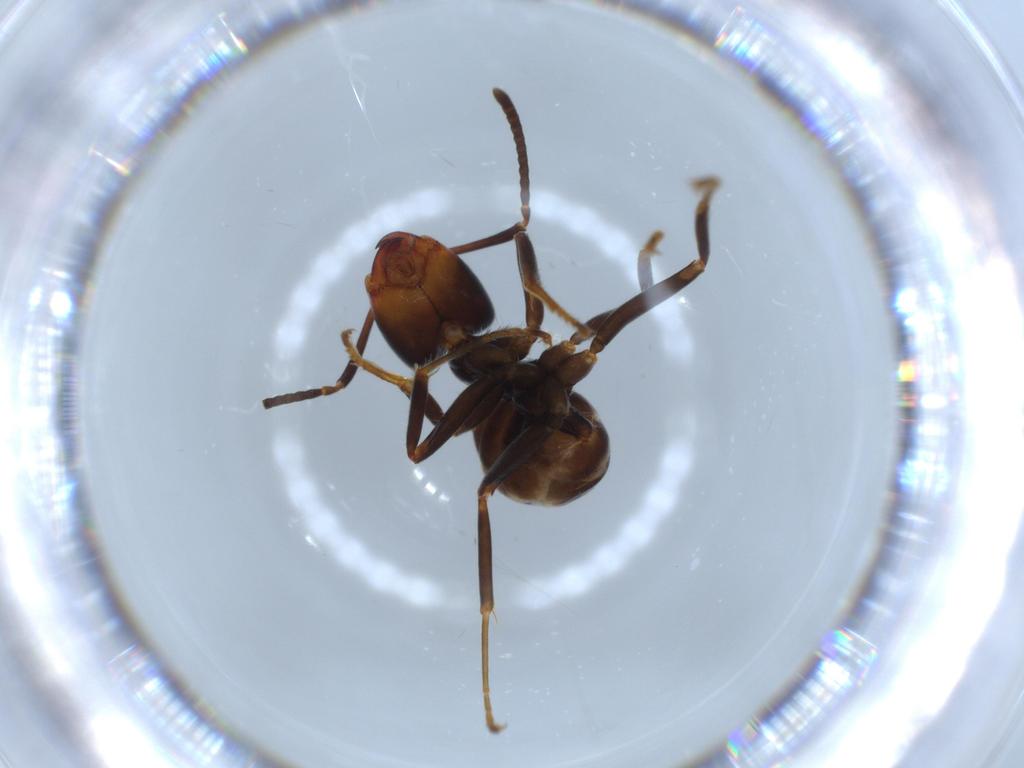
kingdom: Animalia
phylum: Arthropoda
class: Insecta
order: Hymenoptera
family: Formicidae
